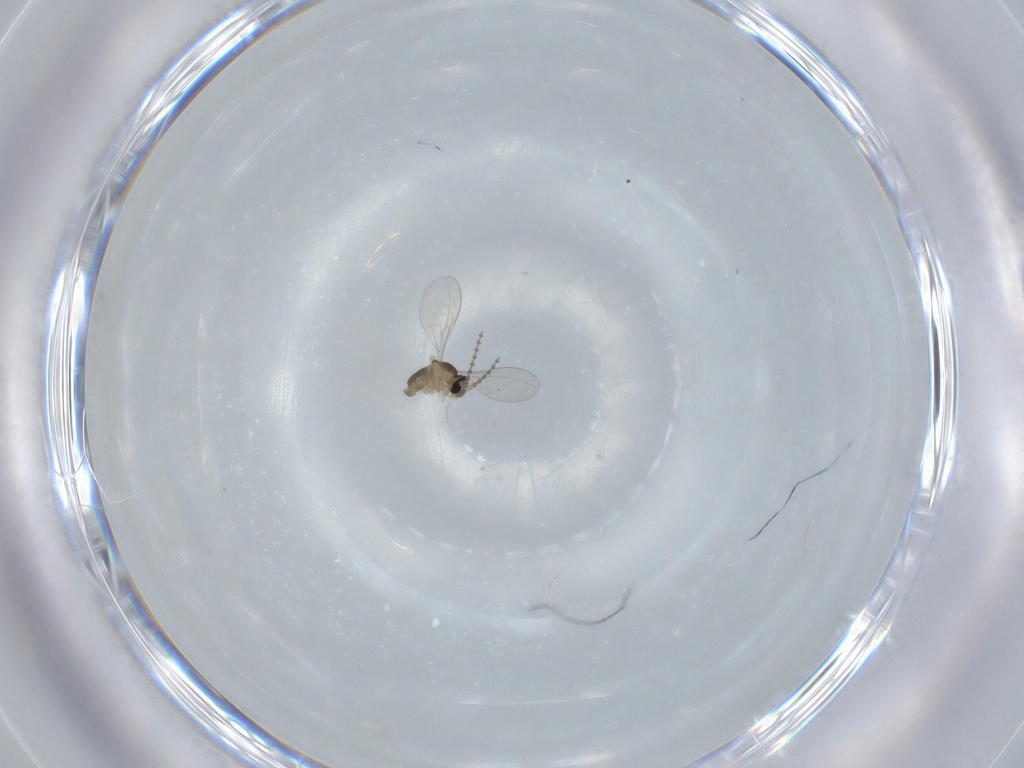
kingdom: Animalia
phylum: Arthropoda
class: Insecta
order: Diptera
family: Cecidomyiidae
